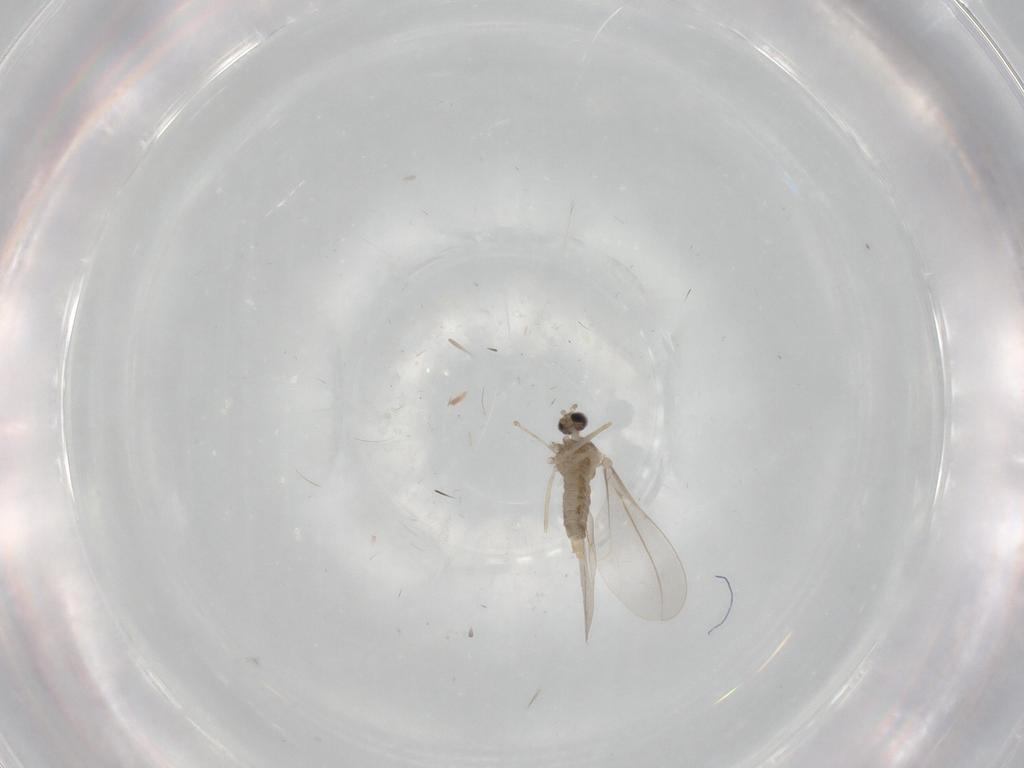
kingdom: Animalia
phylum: Arthropoda
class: Insecta
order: Diptera
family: Cecidomyiidae
